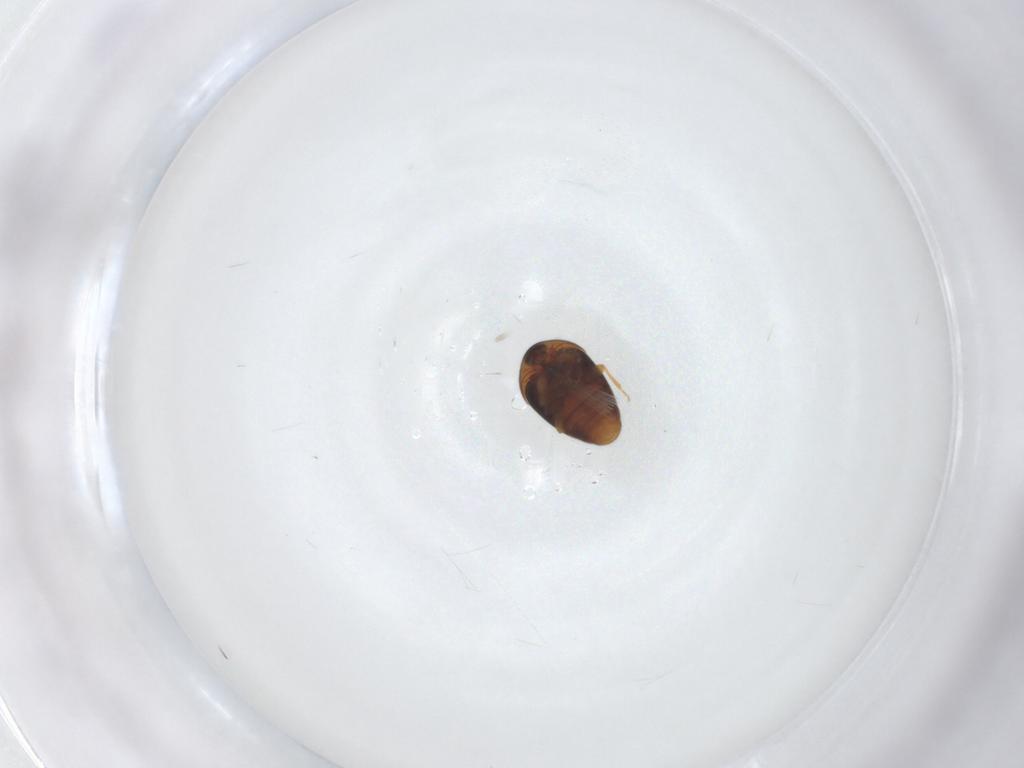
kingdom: Animalia
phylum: Arthropoda
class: Insecta
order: Coleoptera
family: Corylophidae
